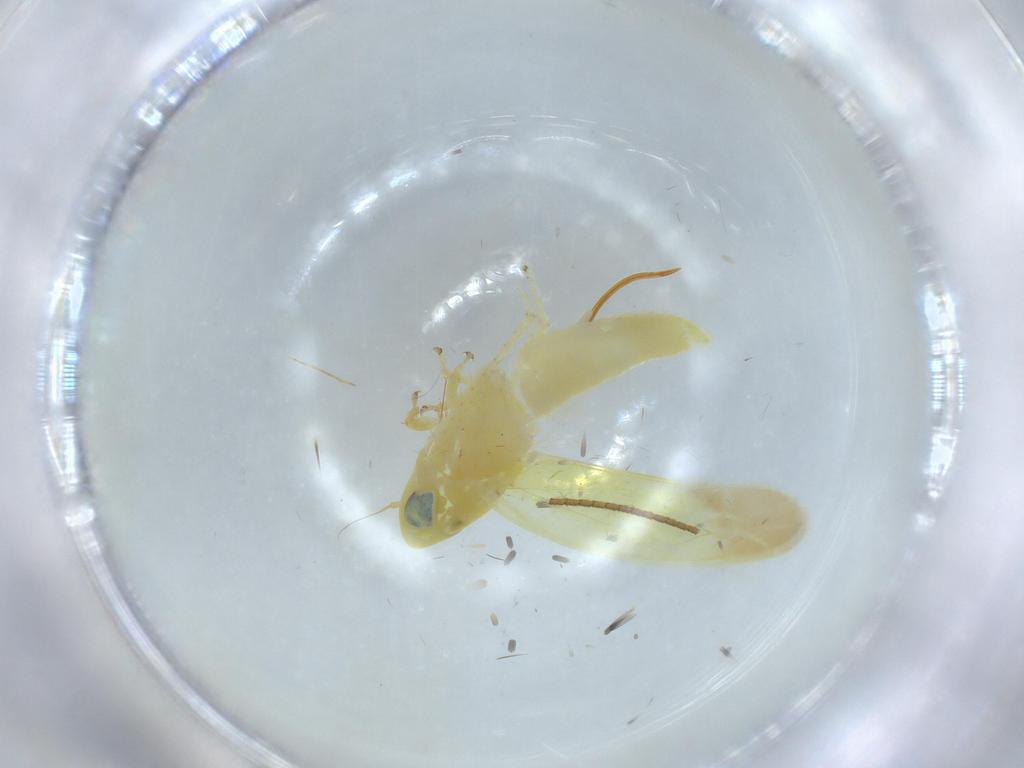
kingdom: Animalia
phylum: Arthropoda
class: Insecta
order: Hemiptera
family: Cicadellidae
